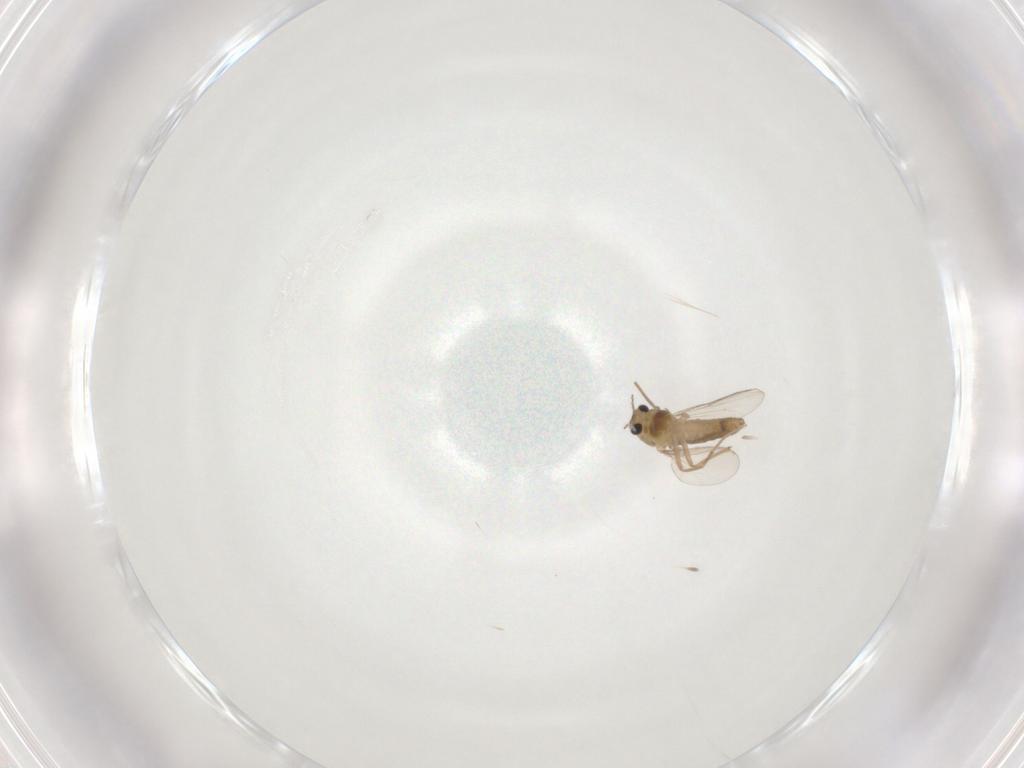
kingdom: Animalia
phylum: Arthropoda
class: Insecta
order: Diptera
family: Chironomidae
